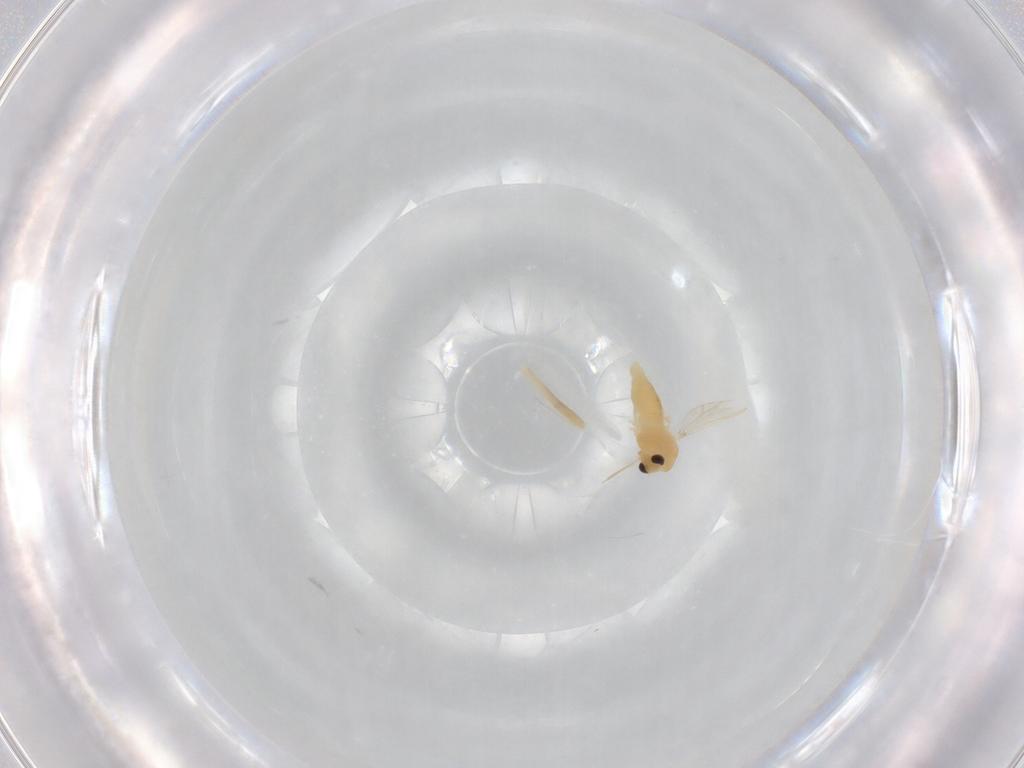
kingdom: Animalia
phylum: Arthropoda
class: Insecta
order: Diptera
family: Chironomidae
